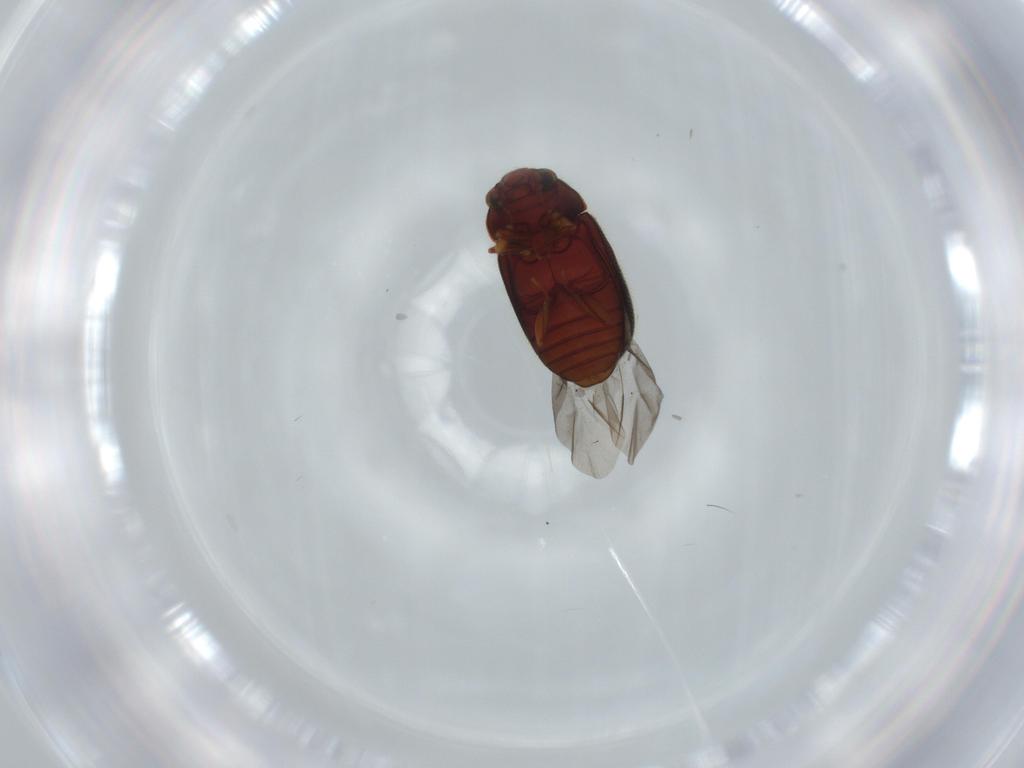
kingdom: Animalia
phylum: Arthropoda
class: Insecta
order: Coleoptera
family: Sphindidae
